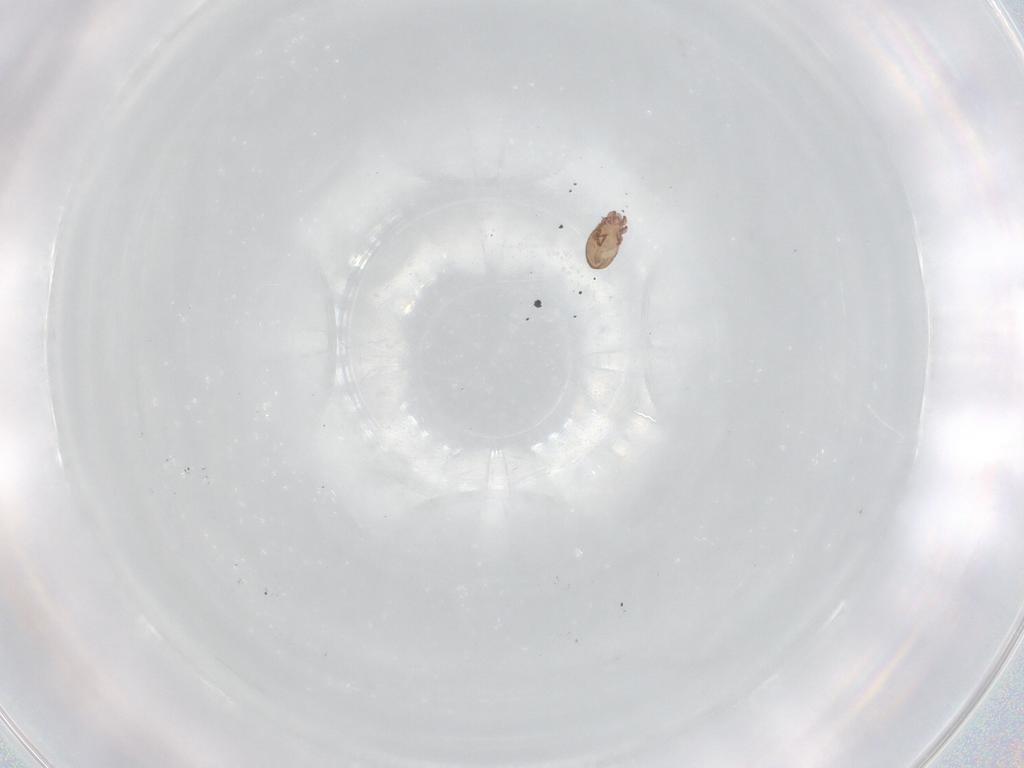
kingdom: Animalia
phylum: Arthropoda
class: Arachnida
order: Sarcoptiformes
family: Eremaeidae
